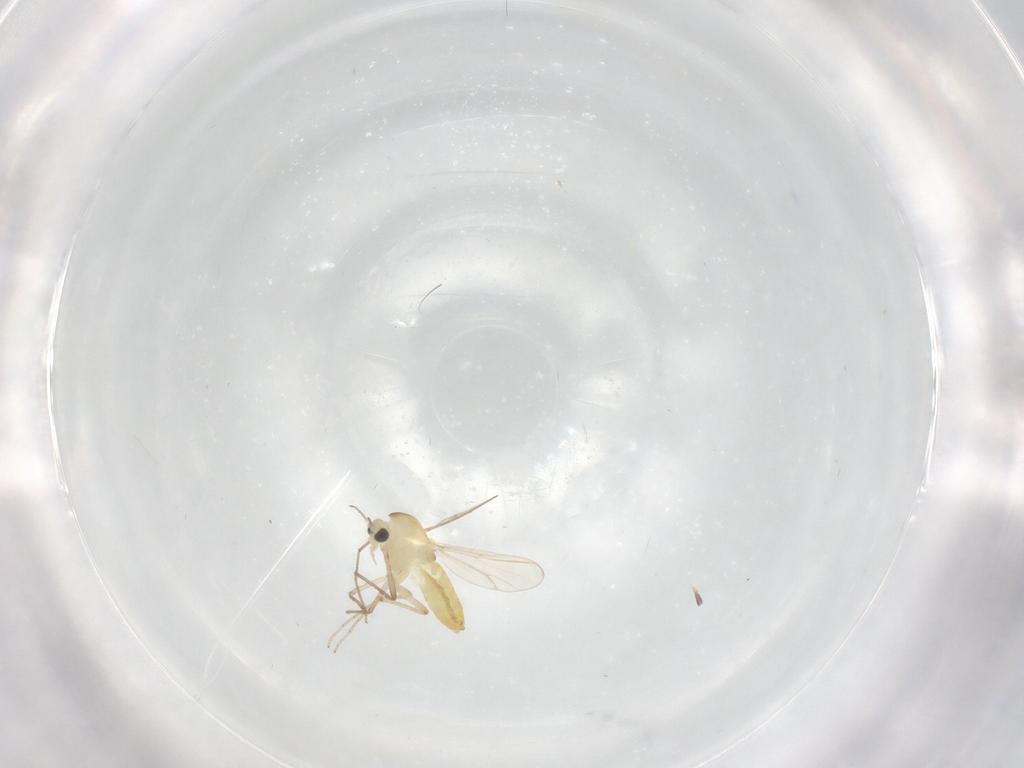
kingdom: Animalia
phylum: Arthropoda
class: Insecta
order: Diptera
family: Chironomidae
